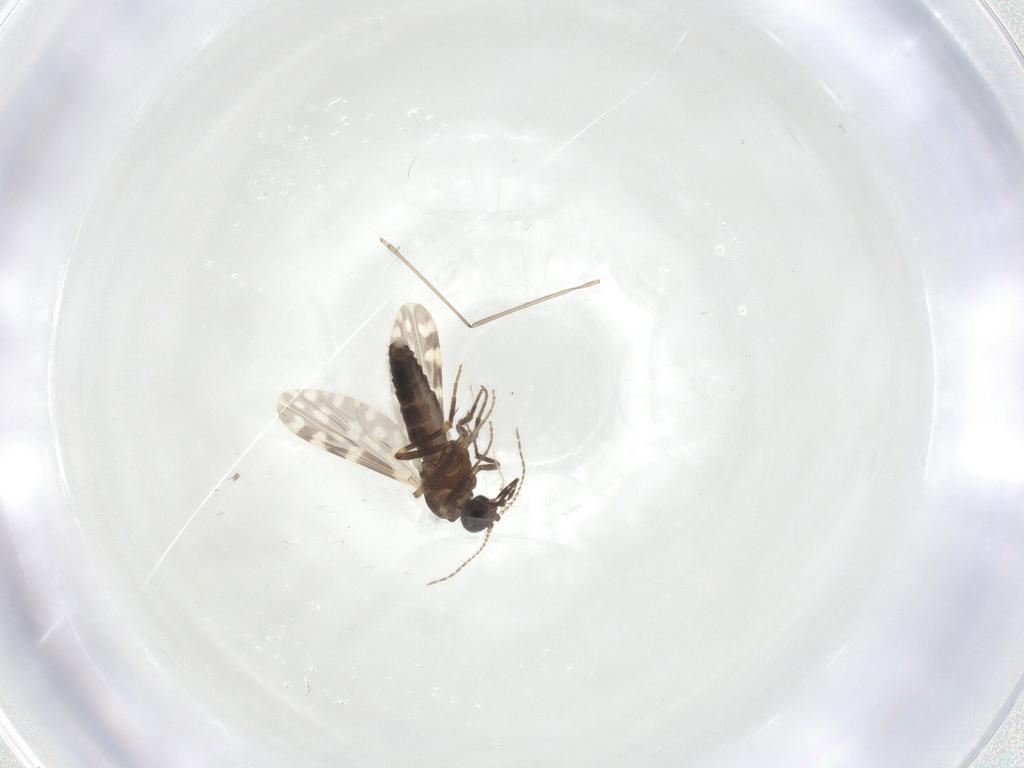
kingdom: Animalia
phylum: Arthropoda
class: Insecta
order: Diptera
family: Ceratopogonidae
